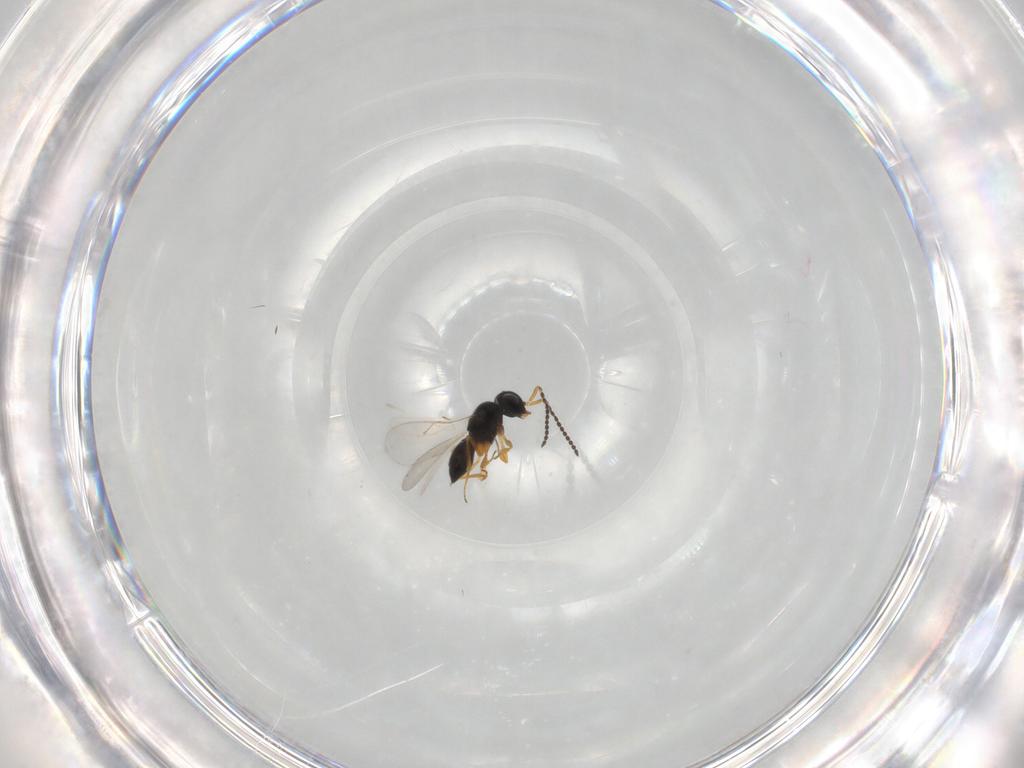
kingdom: Animalia
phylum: Arthropoda
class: Insecta
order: Hymenoptera
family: Scelionidae
